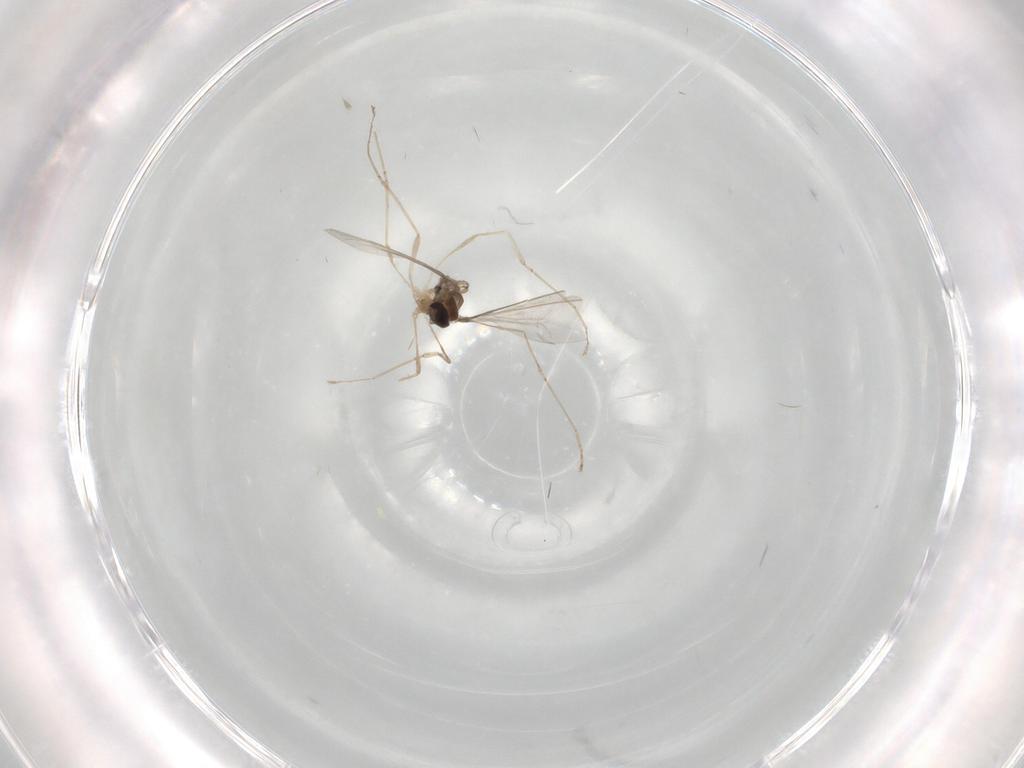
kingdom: Animalia
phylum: Arthropoda
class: Insecta
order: Diptera
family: Cecidomyiidae
